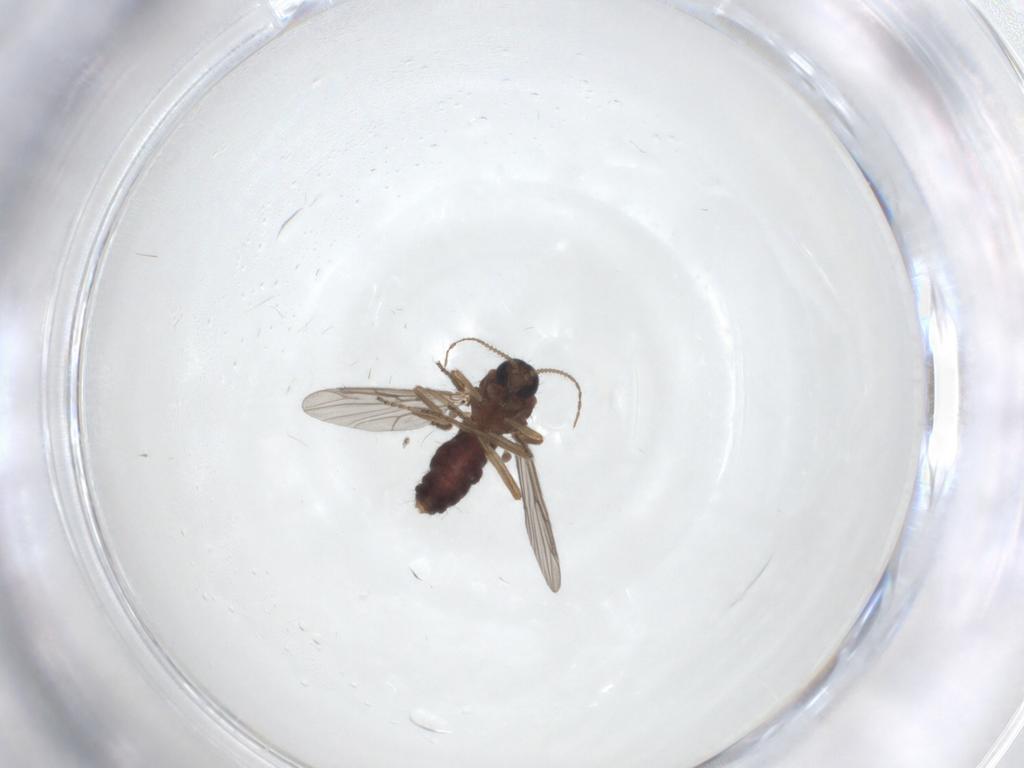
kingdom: Animalia
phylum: Arthropoda
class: Insecta
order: Diptera
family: Ceratopogonidae
